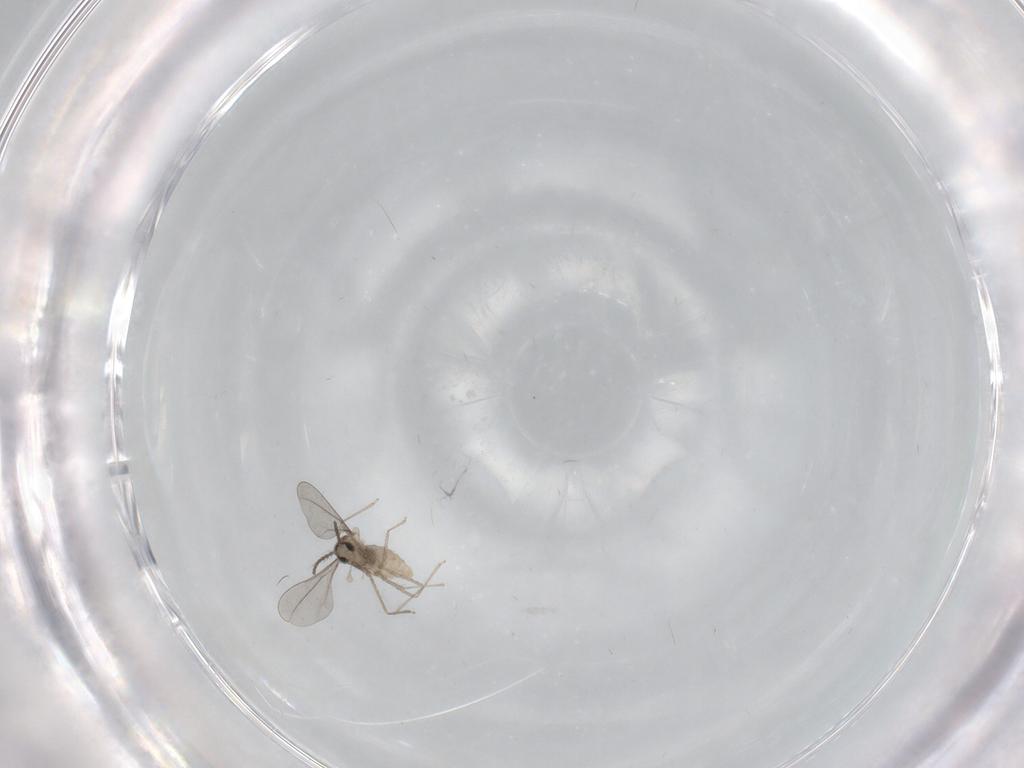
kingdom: Animalia
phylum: Arthropoda
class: Insecta
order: Diptera
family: Cecidomyiidae
